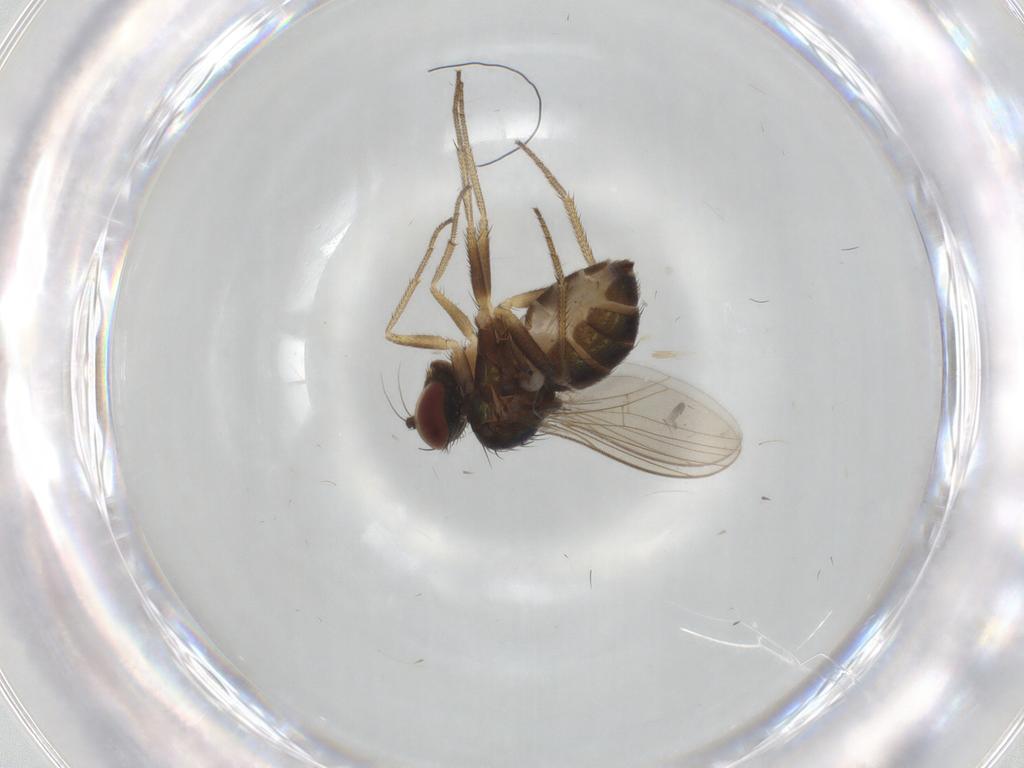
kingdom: Animalia
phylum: Arthropoda
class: Insecta
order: Diptera
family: Dolichopodidae
